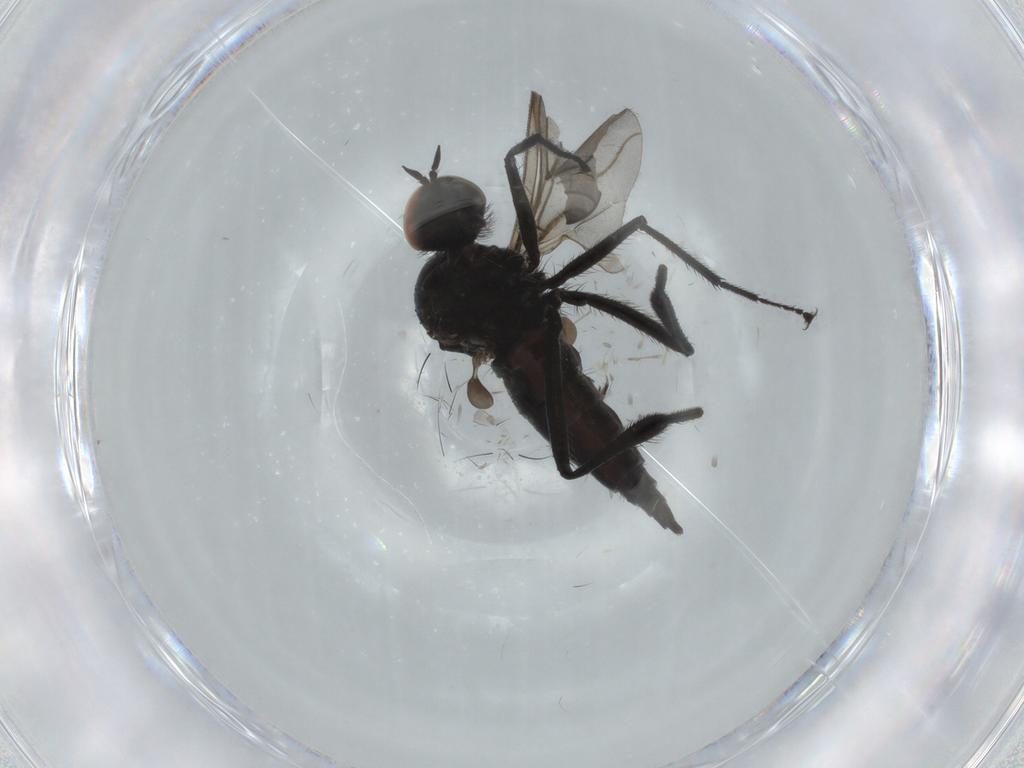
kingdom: Animalia
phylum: Arthropoda
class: Insecta
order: Diptera
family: Hybotidae
